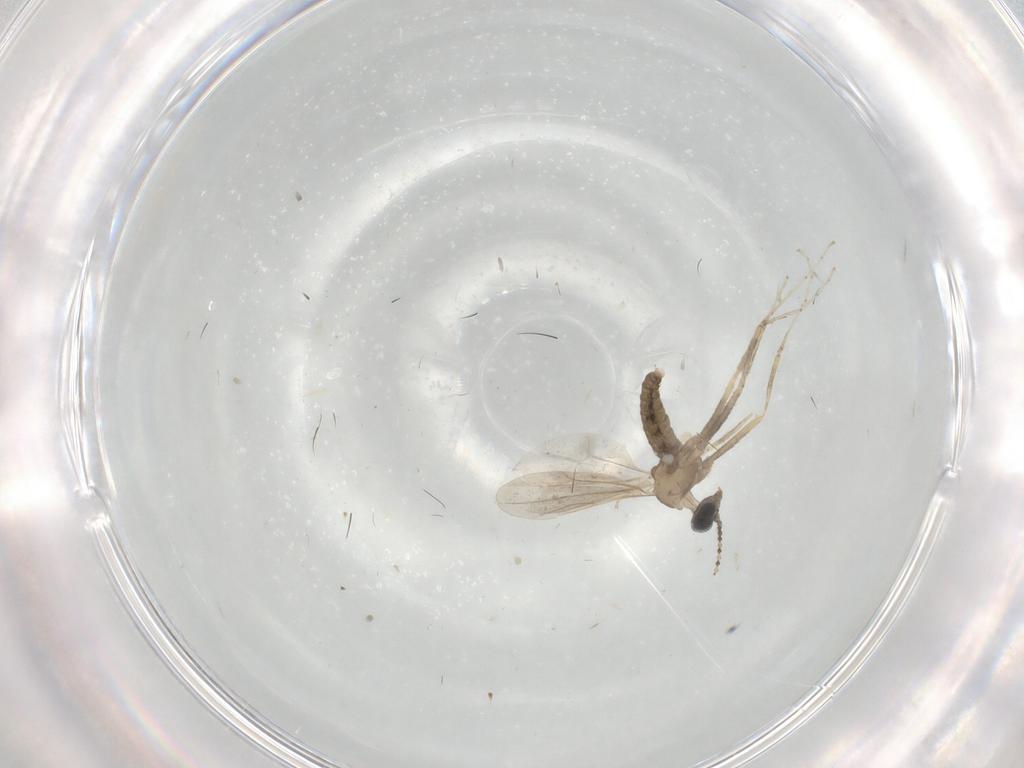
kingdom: Animalia
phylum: Arthropoda
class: Insecta
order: Diptera
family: Cecidomyiidae
